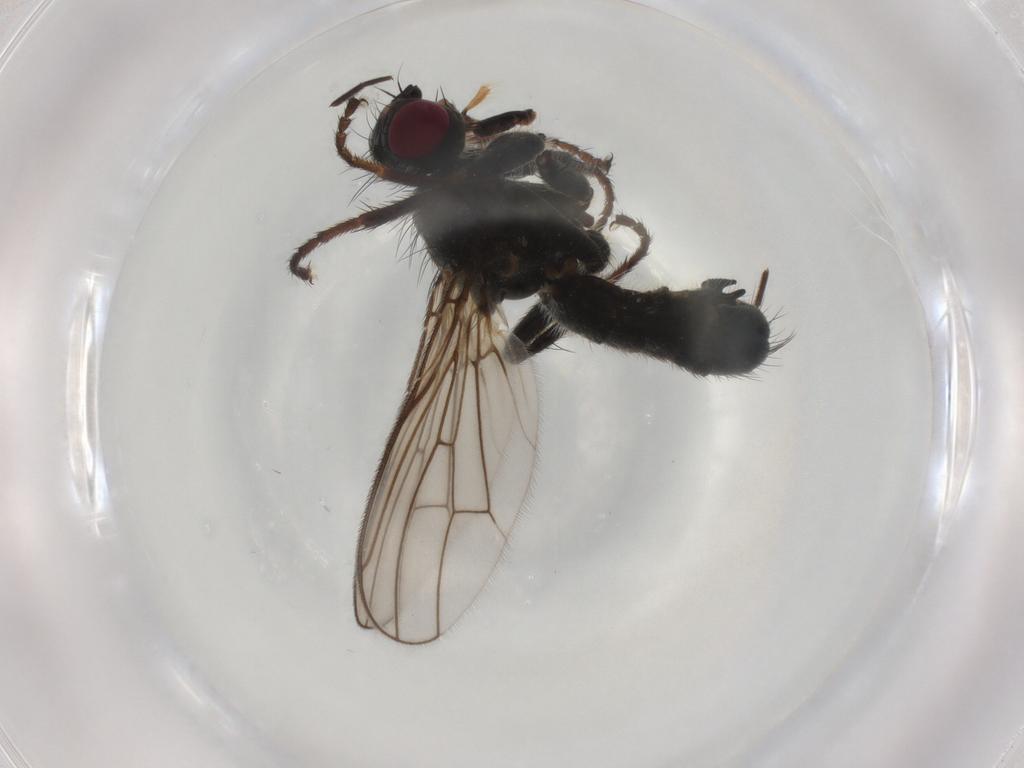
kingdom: Animalia
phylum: Arthropoda
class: Insecta
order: Diptera
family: Scathophagidae
